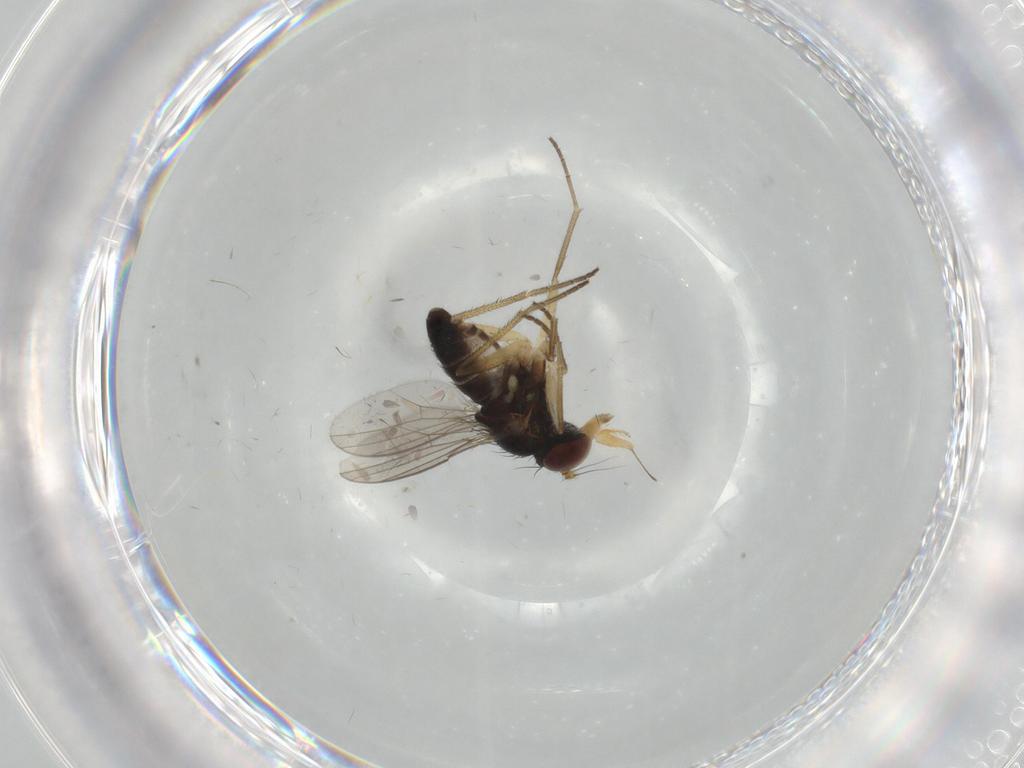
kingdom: Animalia
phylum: Arthropoda
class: Insecta
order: Diptera
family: Dolichopodidae
